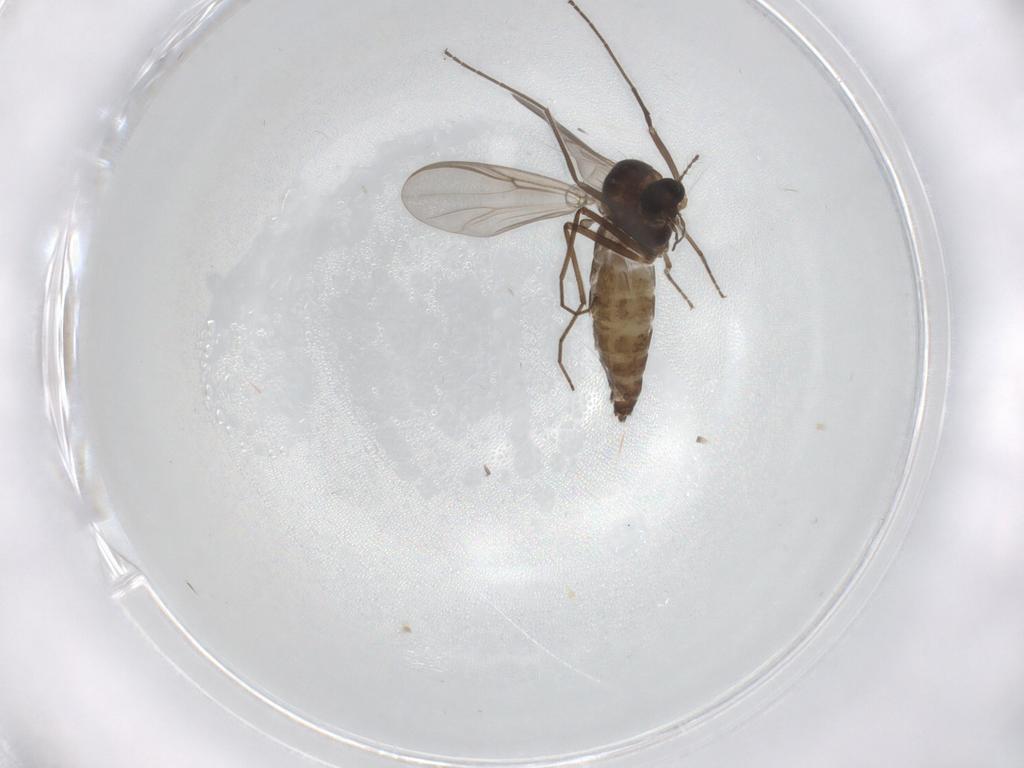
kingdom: Animalia
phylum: Arthropoda
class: Insecta
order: Diptera
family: Chironomidae
